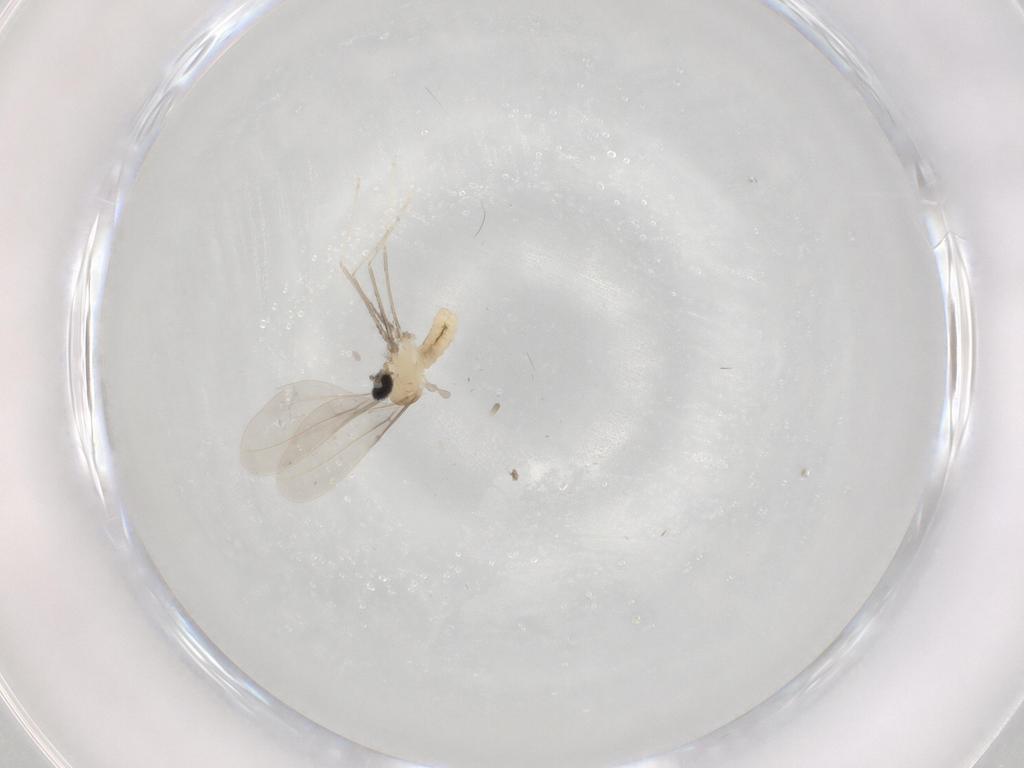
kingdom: Animalia
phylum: Arthropoda
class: Insecta
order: Diptera
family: Cecidomyiidae
